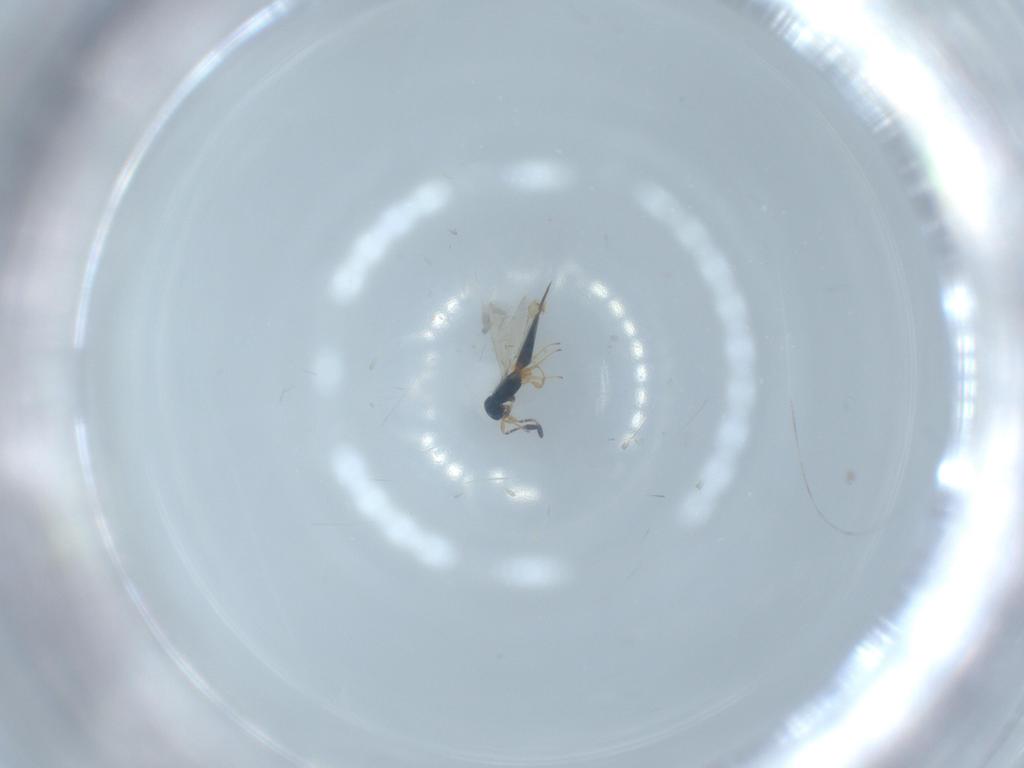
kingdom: Animalia
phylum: Arthropoda
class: Insecta
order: Hymenoptera
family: Scelionidae
